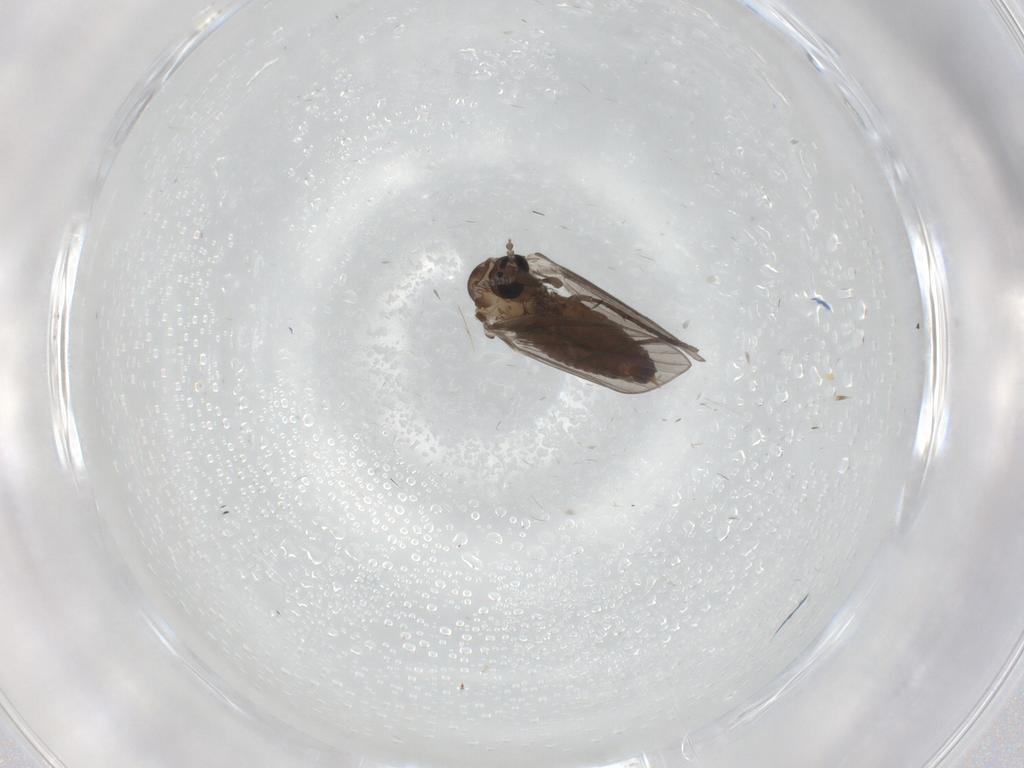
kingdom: Animalia
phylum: Arthropoda
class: Insecta
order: Diptera
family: Psychodidae
